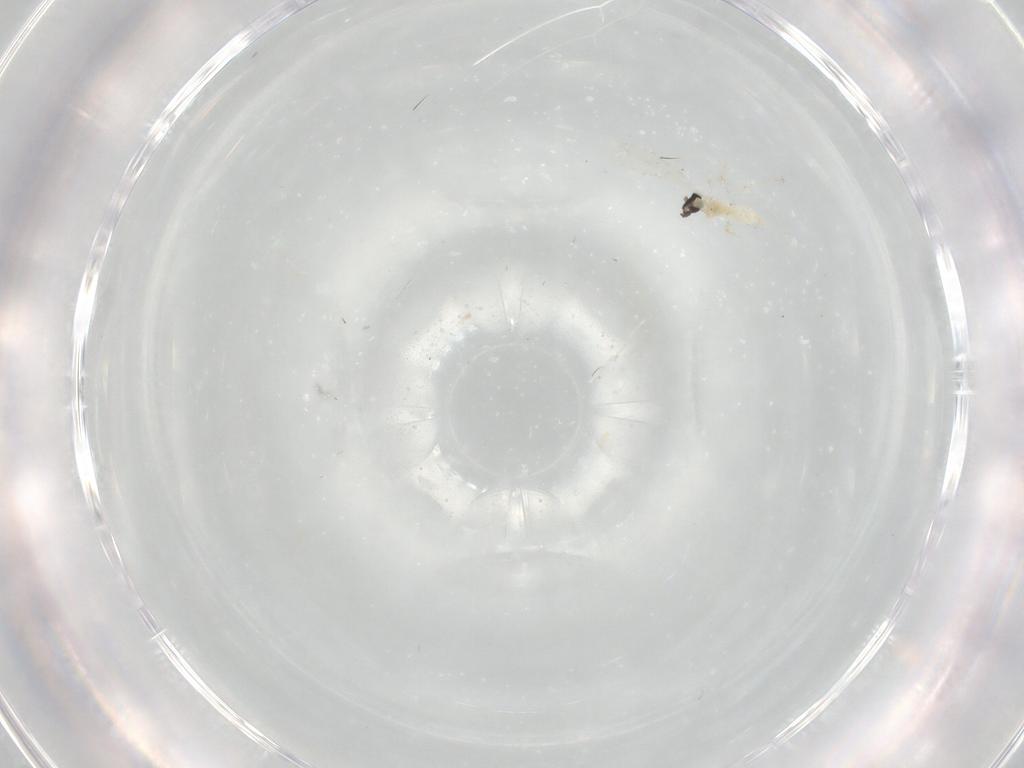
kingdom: Animalia
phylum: Arthropoda
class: Insecta
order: Diptera
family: Cecidomyiidae
